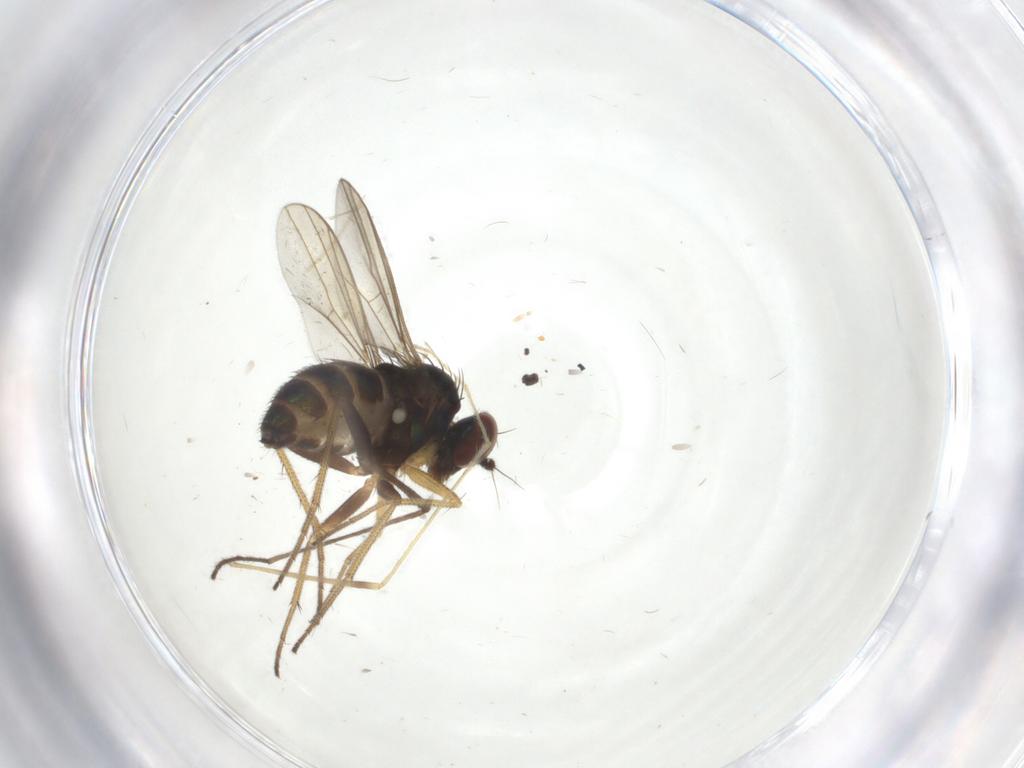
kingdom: Animalia
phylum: Arthropoda
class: Insecta
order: Diptera
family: Dolichopodidae
